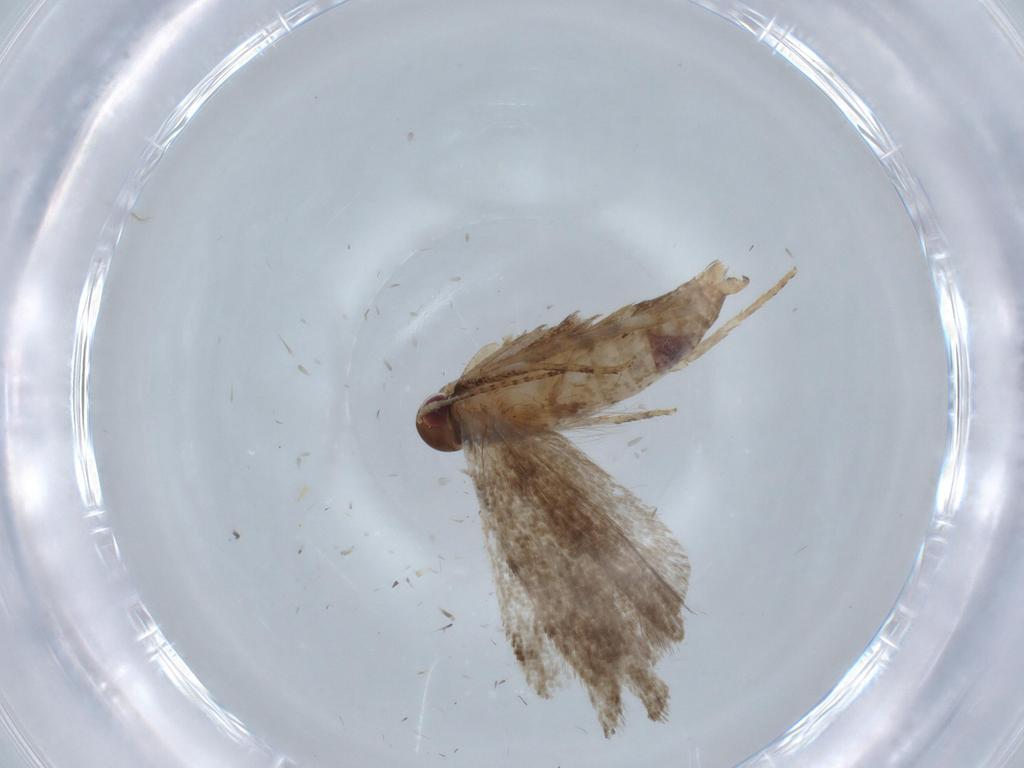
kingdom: Animalia
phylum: Arthropoda
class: Insecta
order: Lepidoptera
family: Gelechiidae
